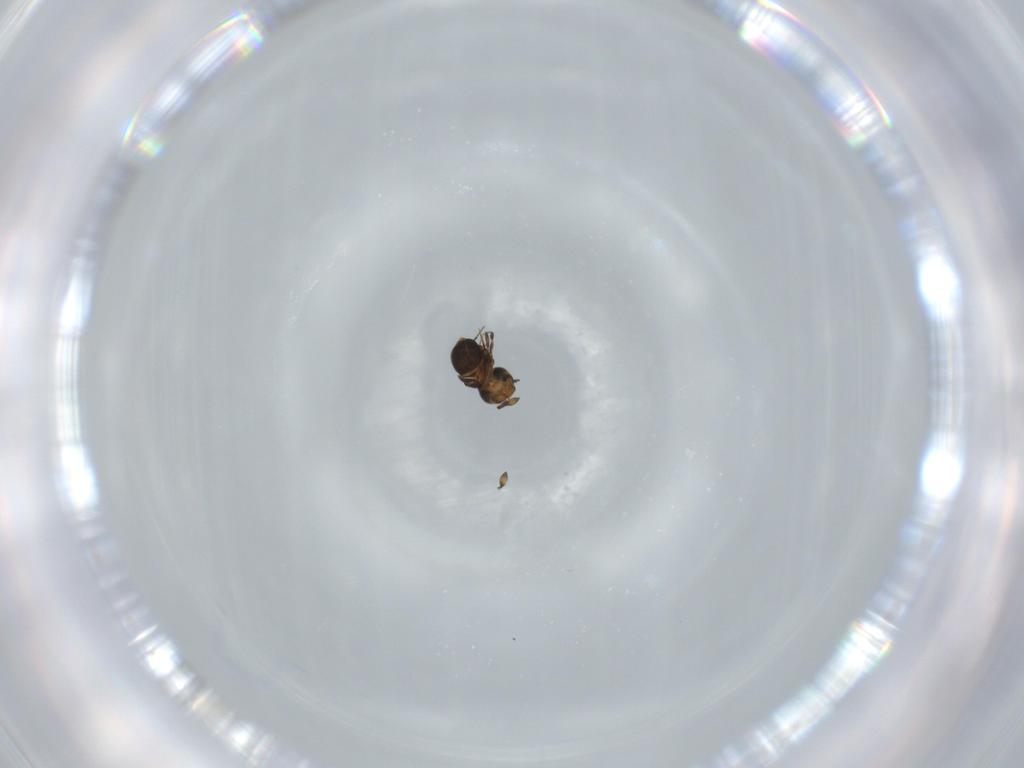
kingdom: Animalia
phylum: Arthropoda
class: Insecta
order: Hymenoptera
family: Scelionidae
